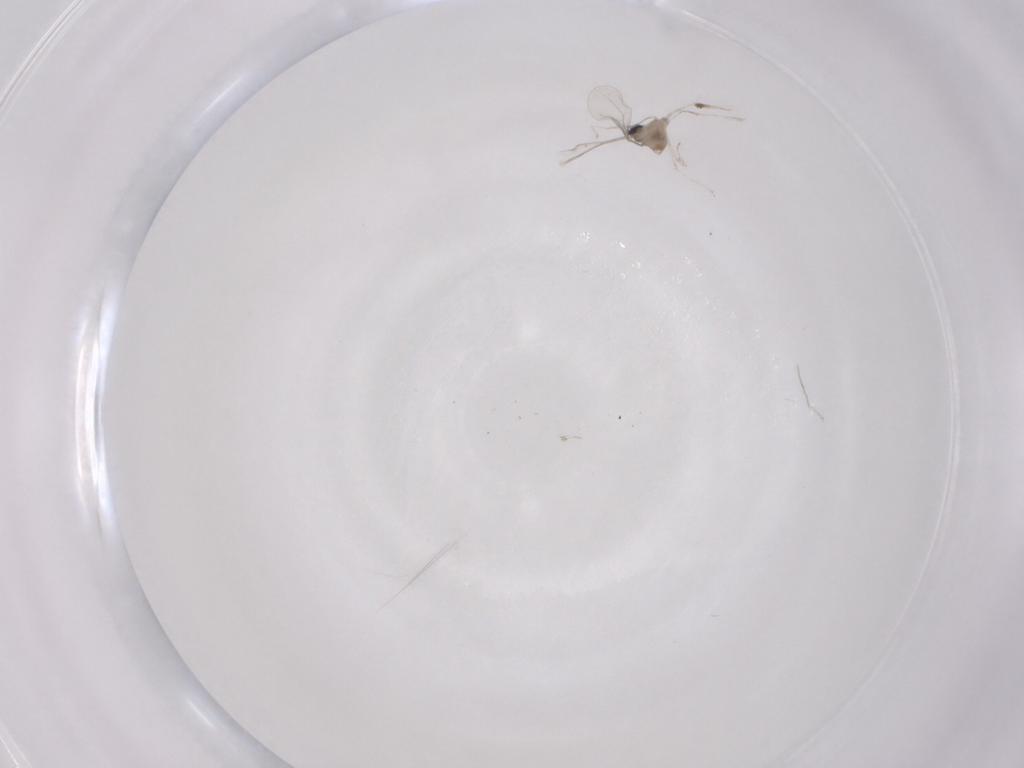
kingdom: Animalia
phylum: Arthropoda
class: Insecta
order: Diptera
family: Cecidomyiidae
